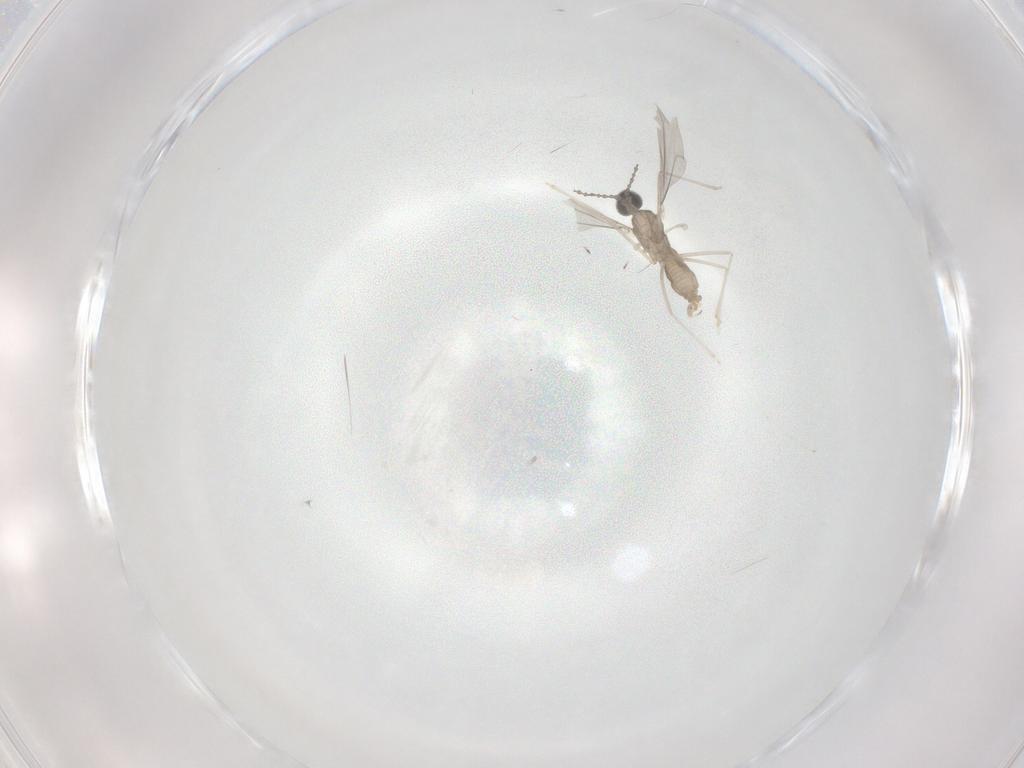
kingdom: Animalia
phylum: Arthropoda
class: Insecta
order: Diptera
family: Cecidomyiidae
